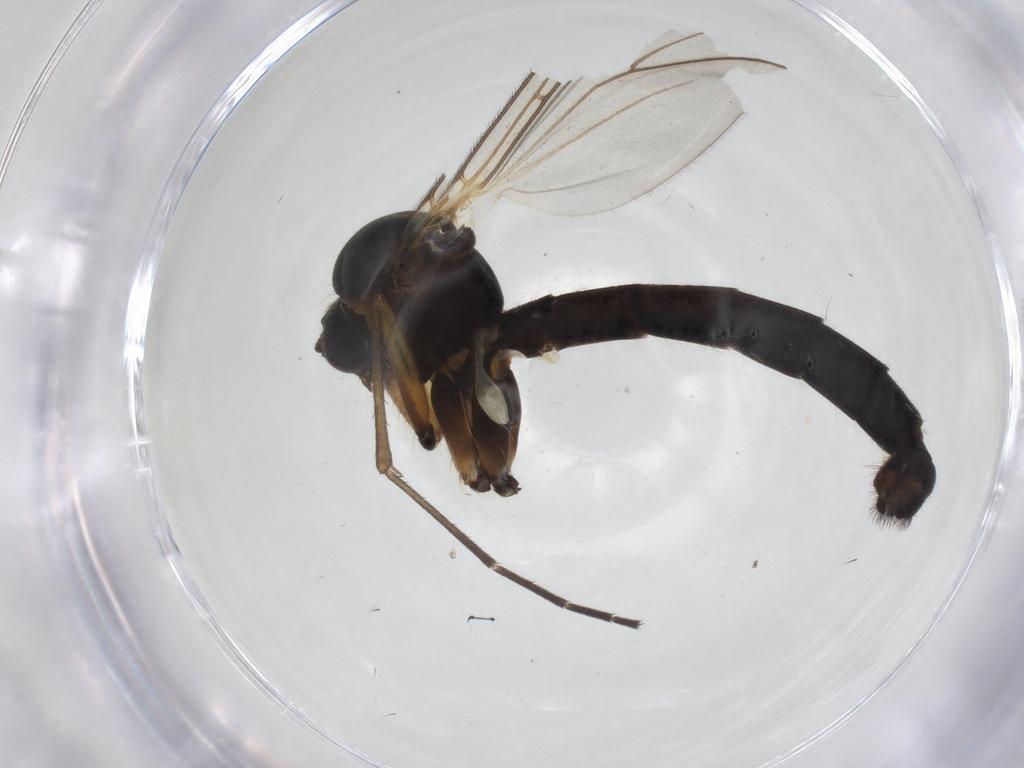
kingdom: Animalia
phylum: Arthropoda
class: Insecta
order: Diptera
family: Mycetophilidae
